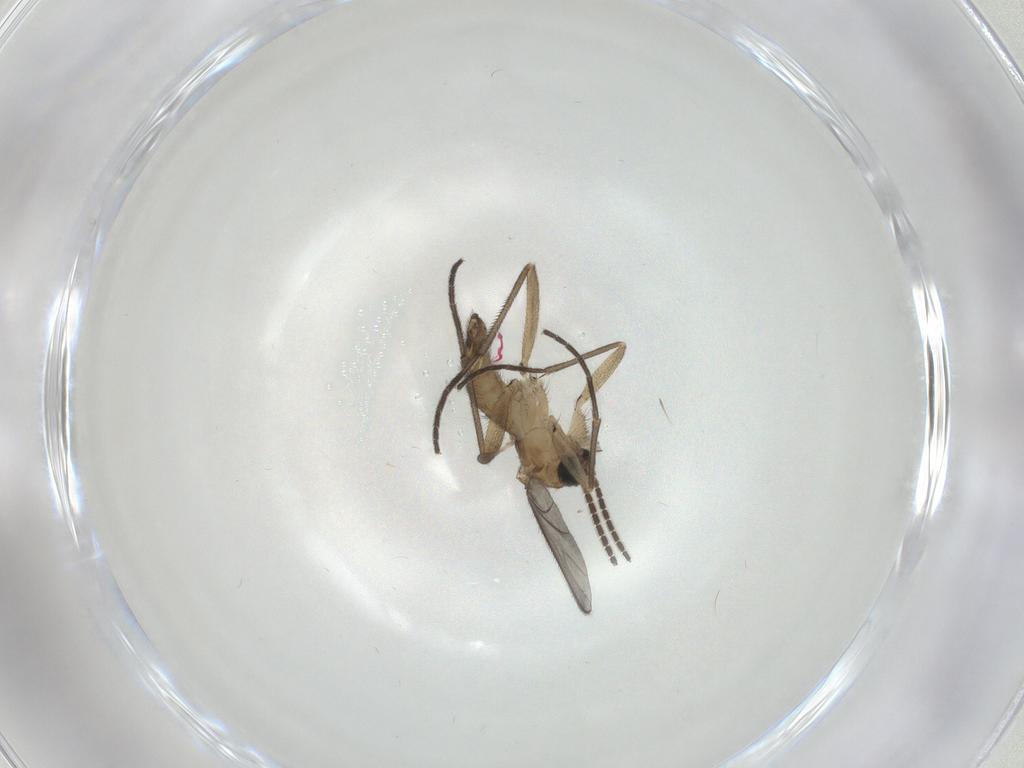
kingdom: Animalia
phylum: Arthropoda
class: Insecta
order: Diptera
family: Sciaridae
